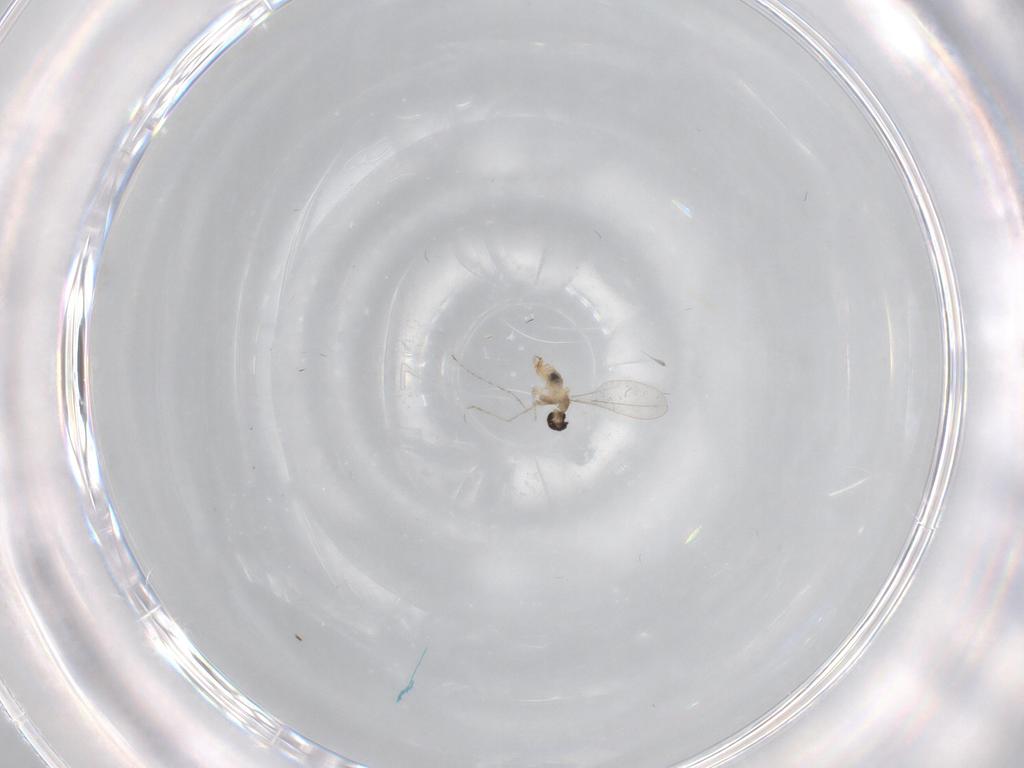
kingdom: Animalia
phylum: Arthropoda
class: Insecta
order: Diptera
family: Cecidomyiidae
